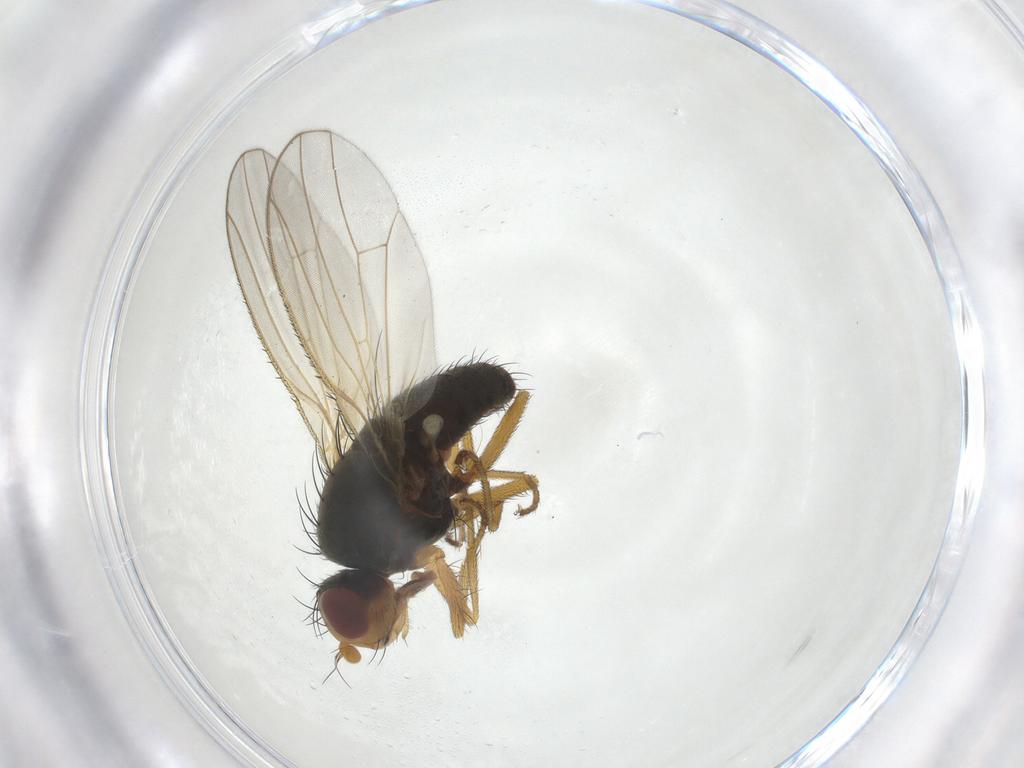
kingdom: Animalia
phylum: Arthropoda
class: Insecta
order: Diptera
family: Heleomyzidae
